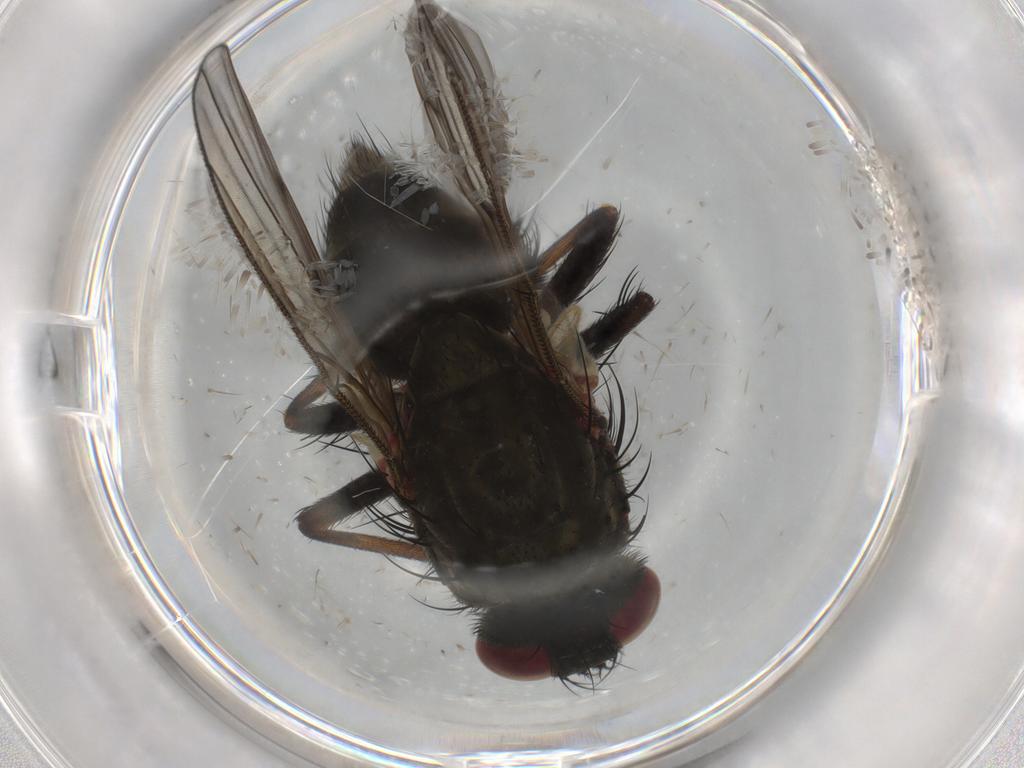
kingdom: Animalia
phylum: Arthropoda
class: Insecta
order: Diptera
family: Muscidae
